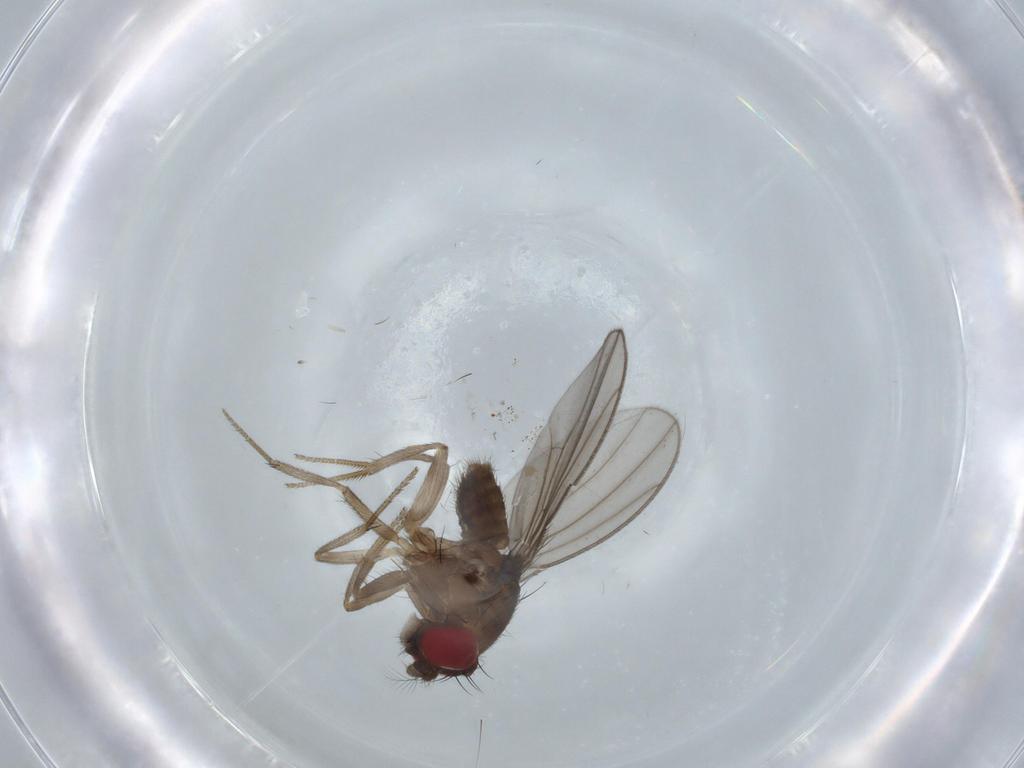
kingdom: Animalia
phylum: Arthropoda
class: Insecta
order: Diptera
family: Drosophilidae
